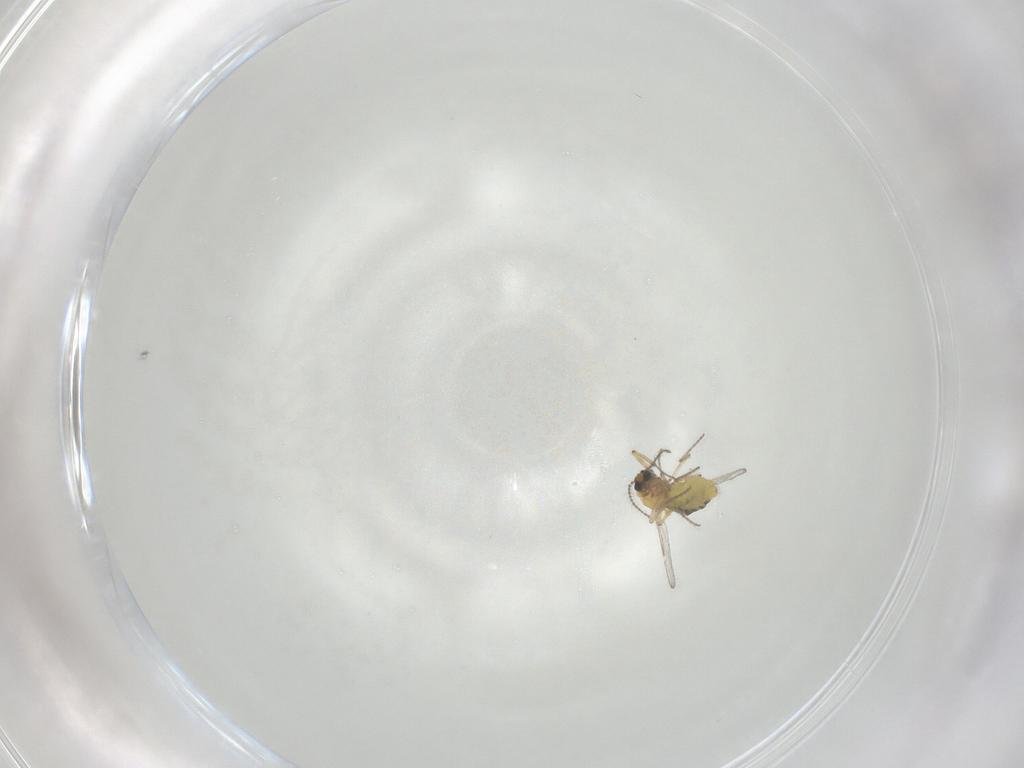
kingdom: Animalia
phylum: Arthropoda
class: Insecta
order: Diptera
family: Ceratopogonidae
